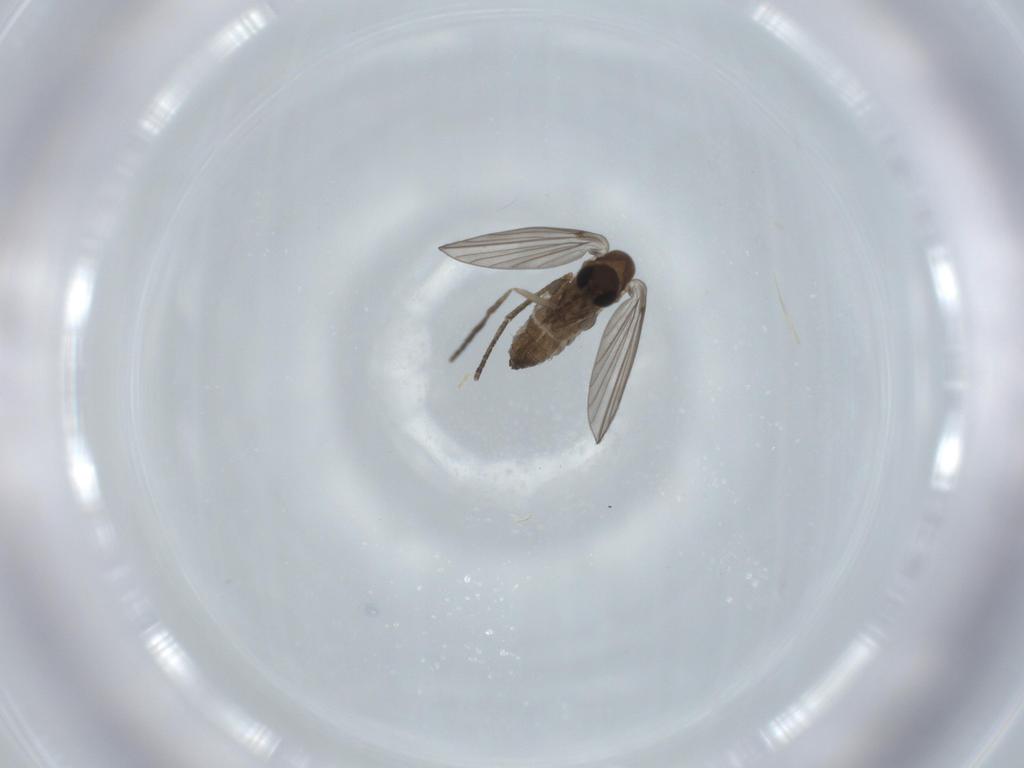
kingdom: Animalia
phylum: Arthropoda
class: Insecta
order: Diptera
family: Psychodidae
